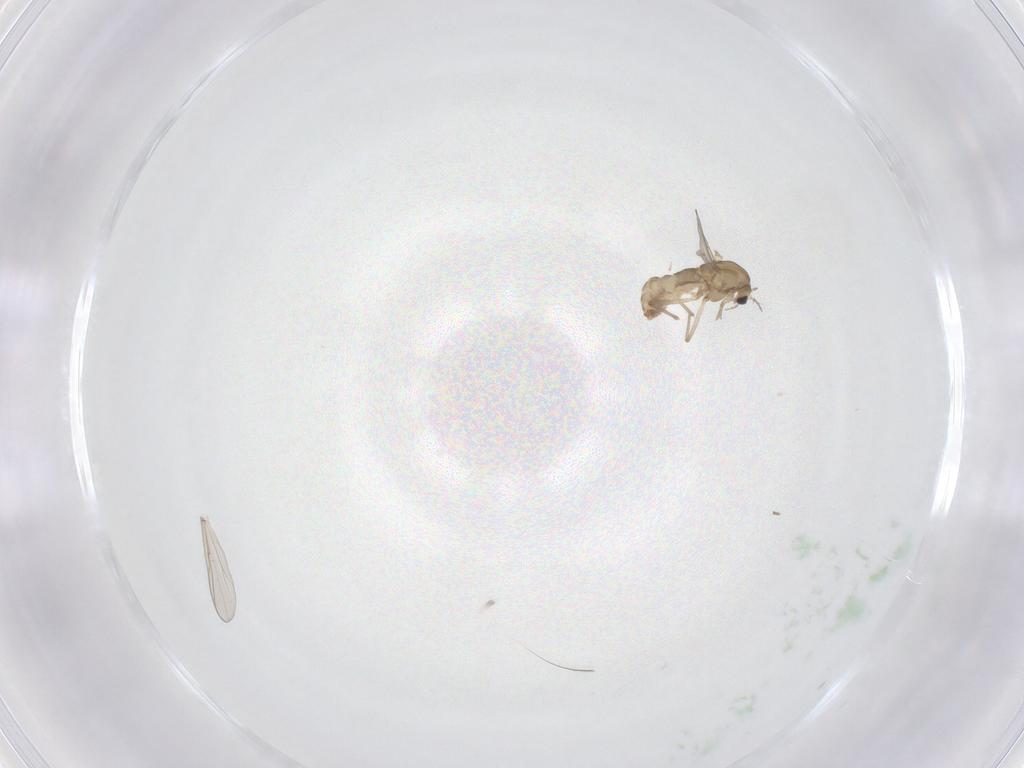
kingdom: Animalia
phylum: Arthropoda
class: Insecta
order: Diptera
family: Chironomidae
